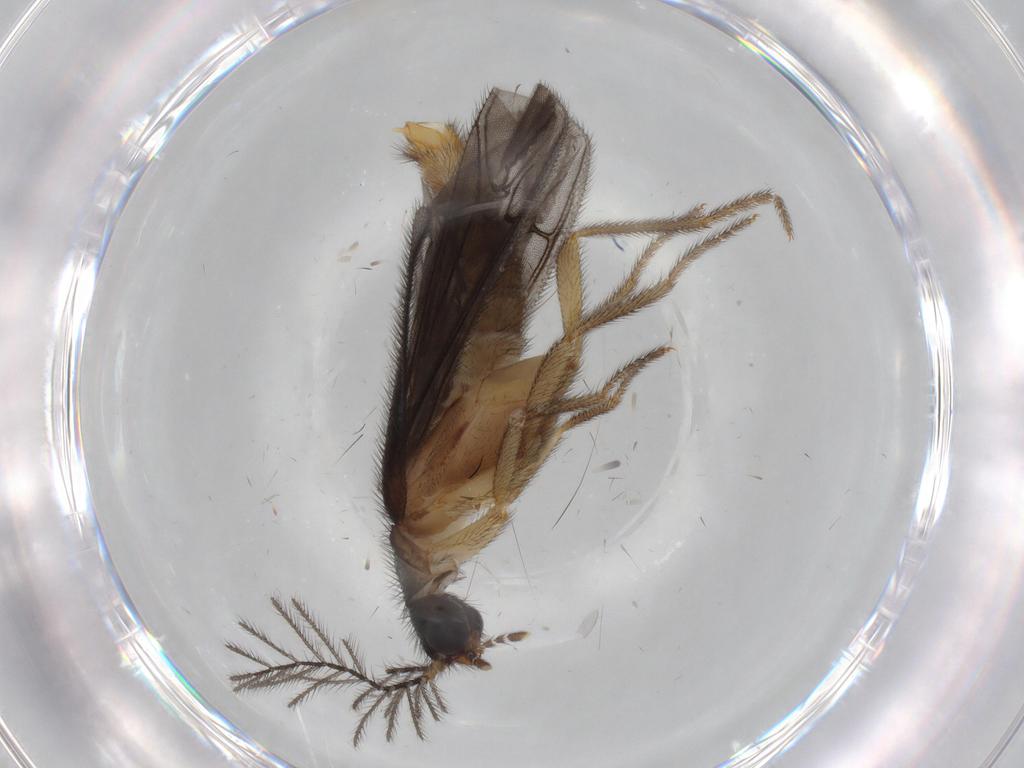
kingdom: Animalia
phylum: Arthropoda
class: Insecta
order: Coleoptera
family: Phengodidae
